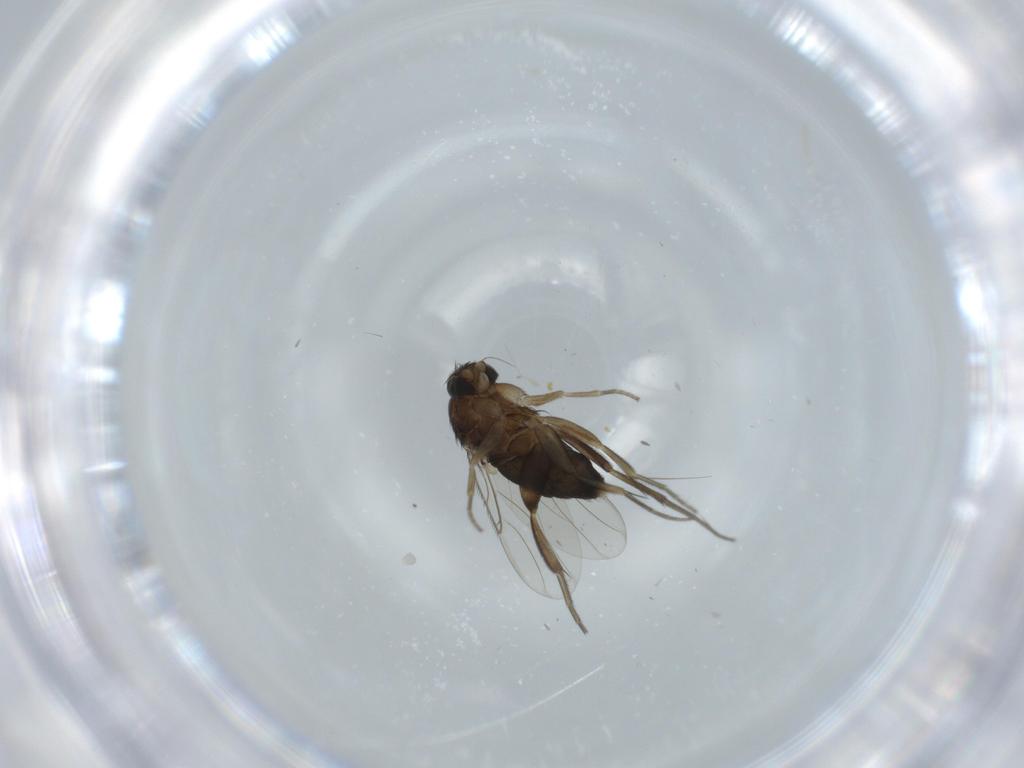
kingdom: Animalia
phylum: Arthropoda
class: Insecta
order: Diptera
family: Phoridae
